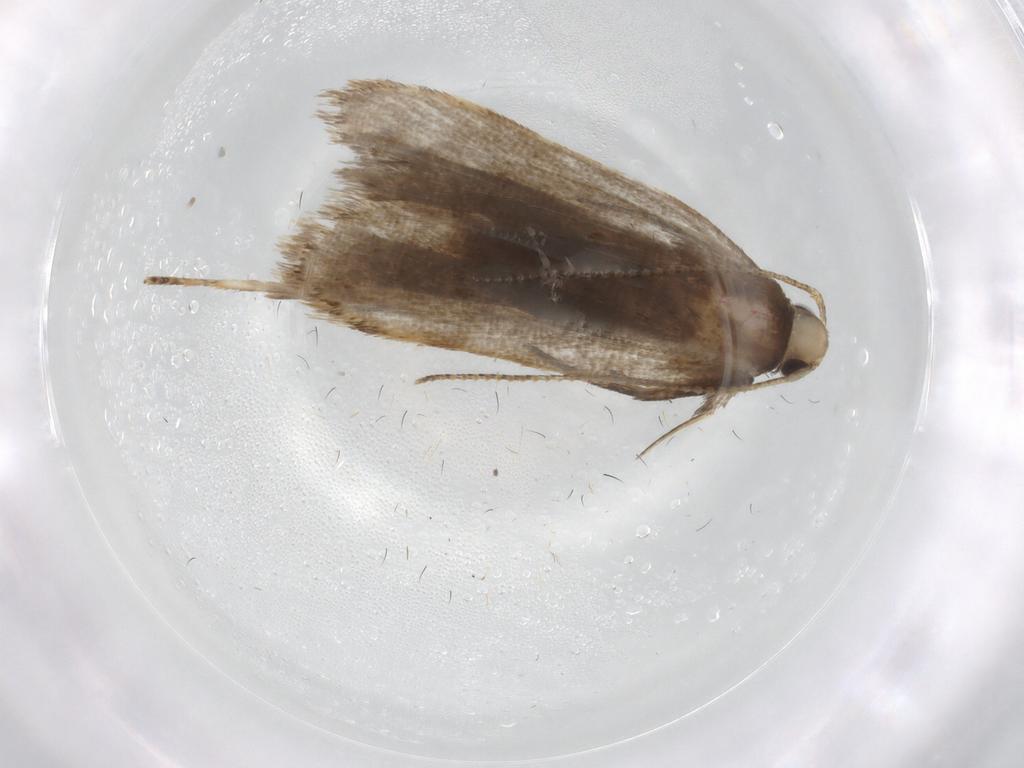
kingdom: Animalia
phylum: Arthropoda
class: Insecta
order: Lepidoptera
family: Gelechiidae
